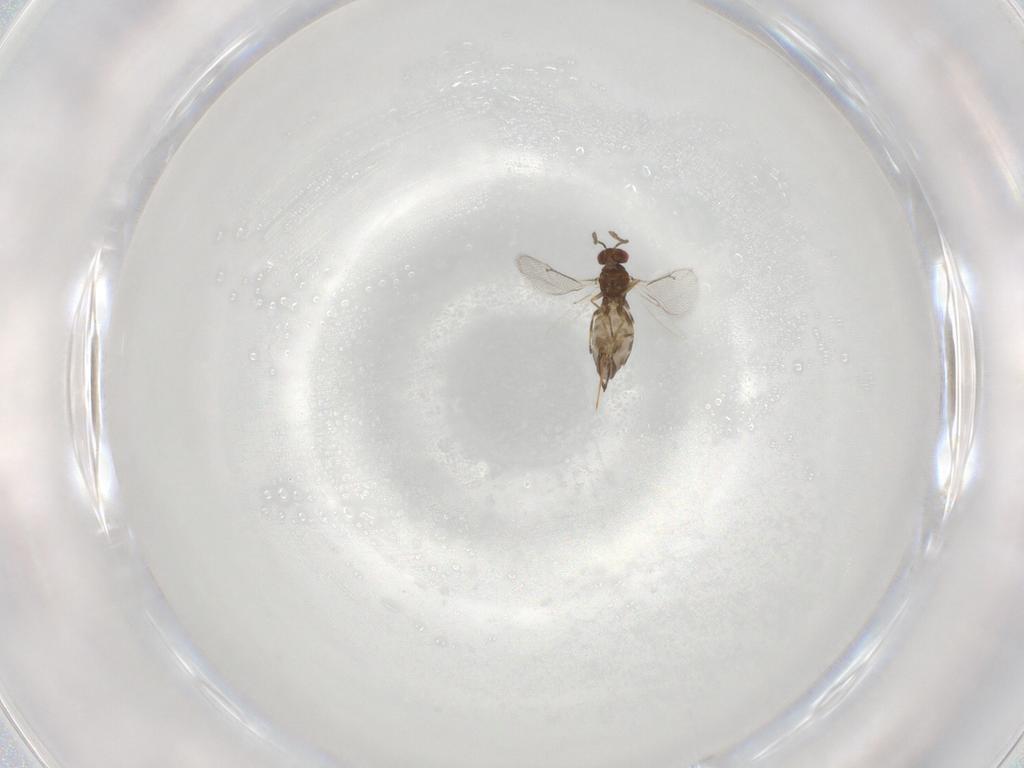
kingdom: Animalia
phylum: Arthropoda
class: Insecta
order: Hymenoptera
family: Eulophidae
